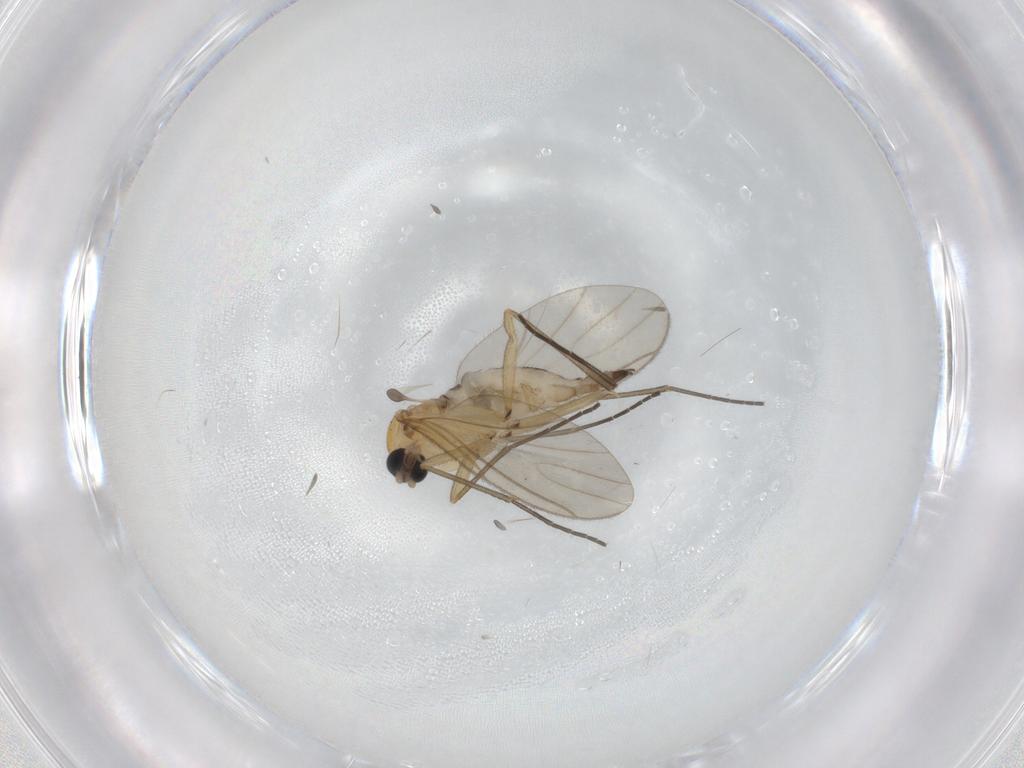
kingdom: Animalia
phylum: Arthropoda
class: Insecta
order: Diptera
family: Sciaridae
